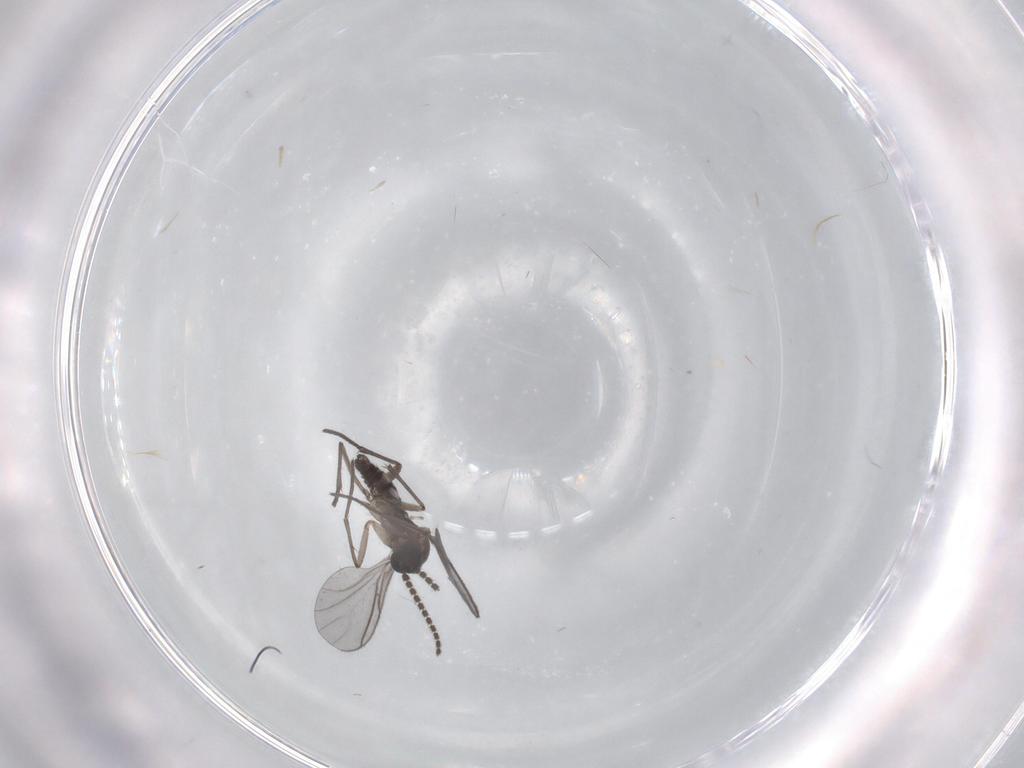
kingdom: Animalia
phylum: Arthropoda
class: Insecta
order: Diptera
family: Sciaridae
